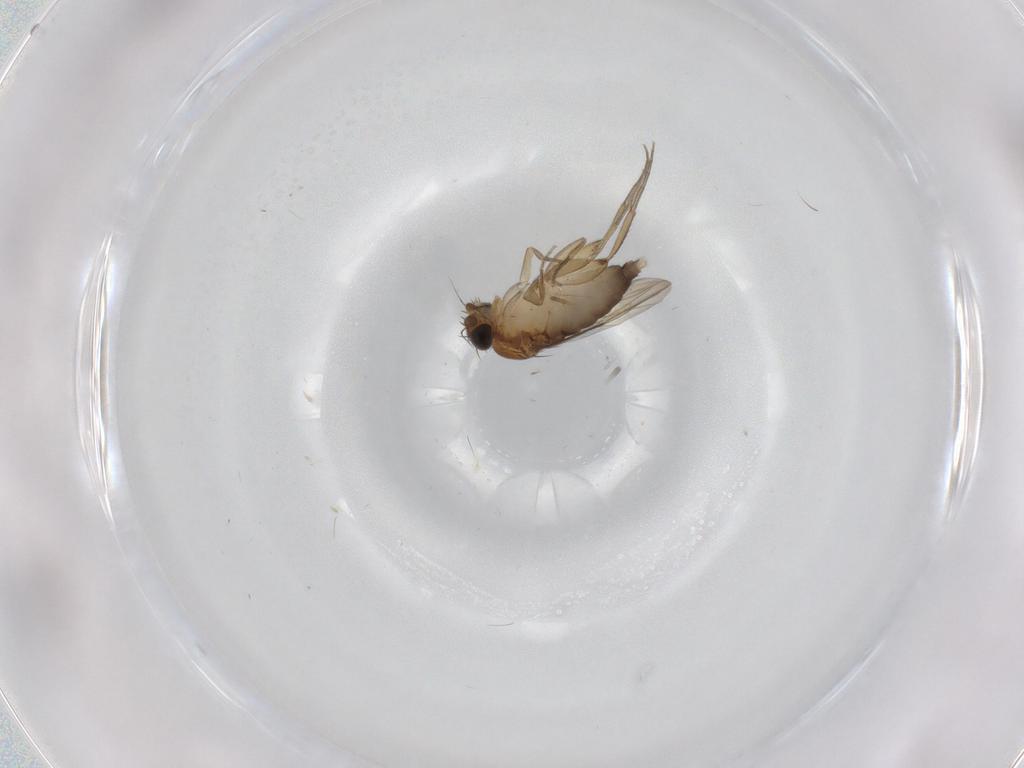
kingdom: Animalia
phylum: Arthropoda
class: Insecta
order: Diptera
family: Phoridae
